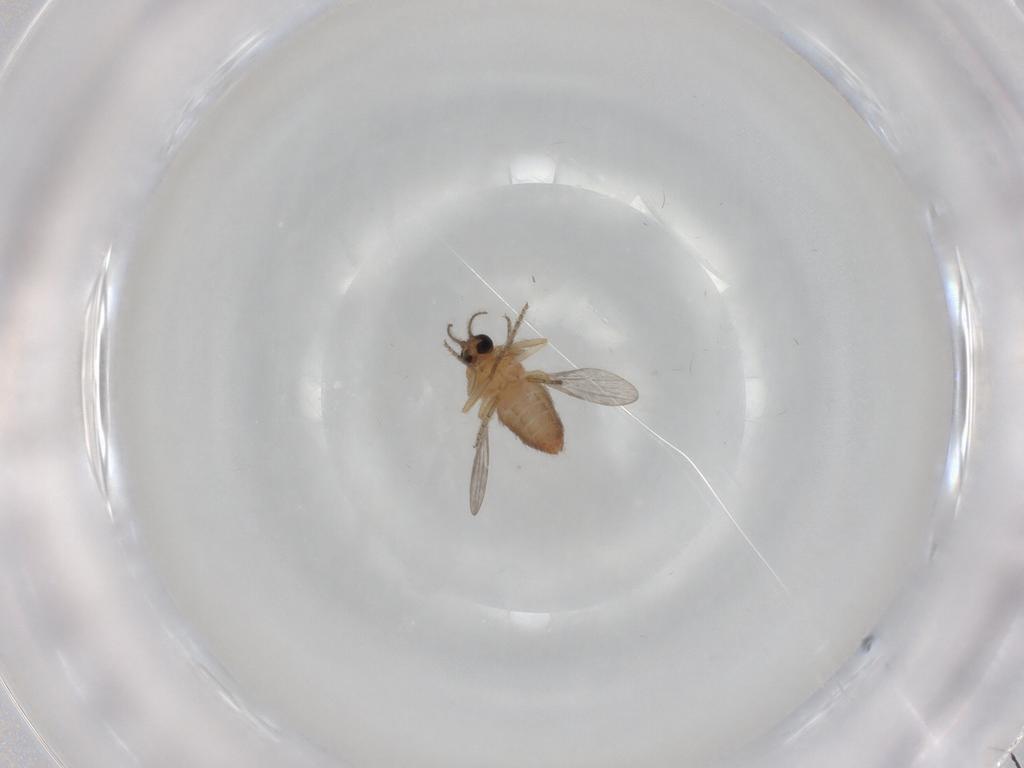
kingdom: Animalia
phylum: Arthropoda
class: Insecta
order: Diptera
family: Ceratopogonidae
